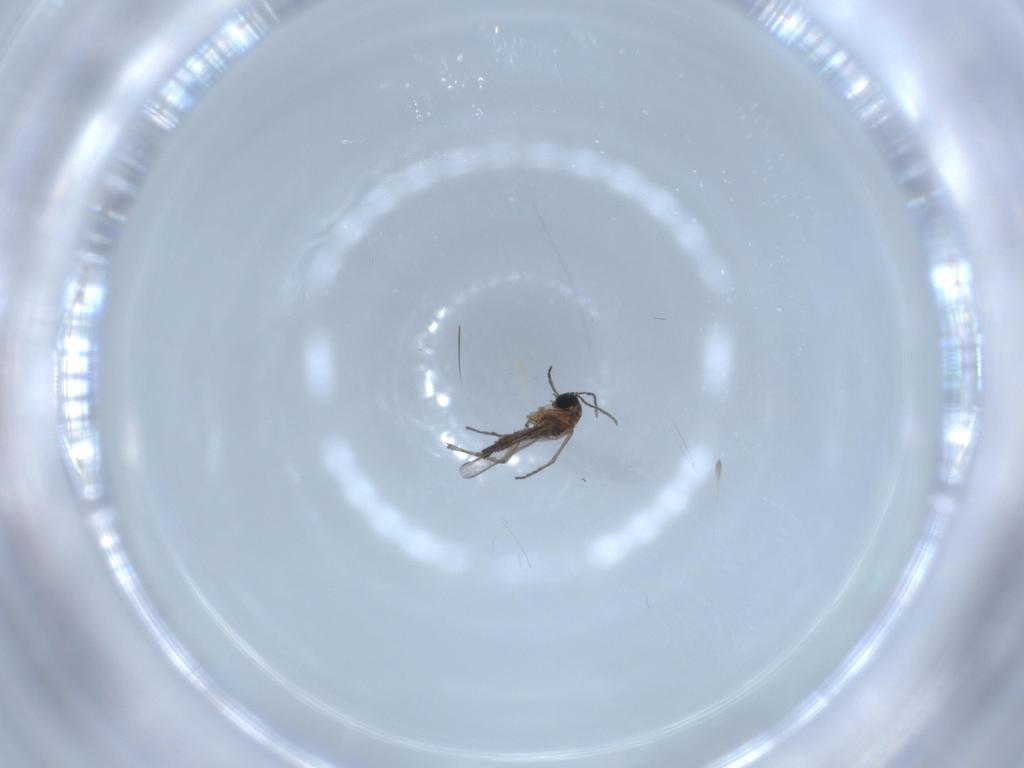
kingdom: Animalia
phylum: Arthropoda
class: Insecta
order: Diptera
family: Chironomidae
